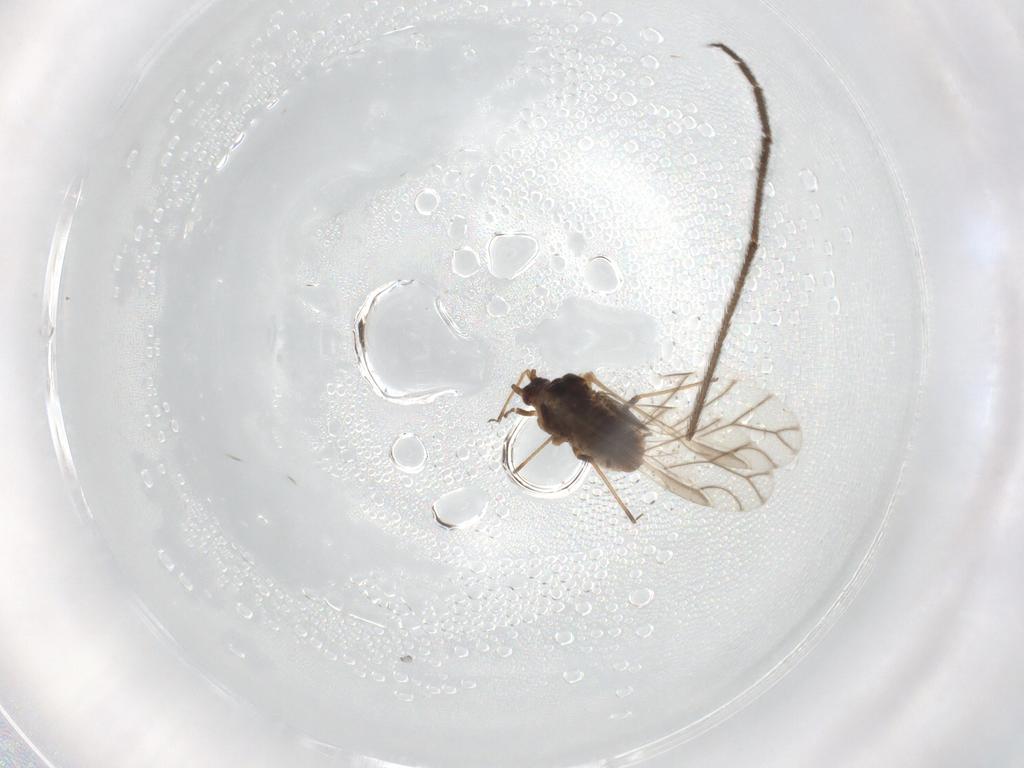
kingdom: Animalia
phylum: Arthropoda
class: Insecta
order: Hemiptera
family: Aphididae
